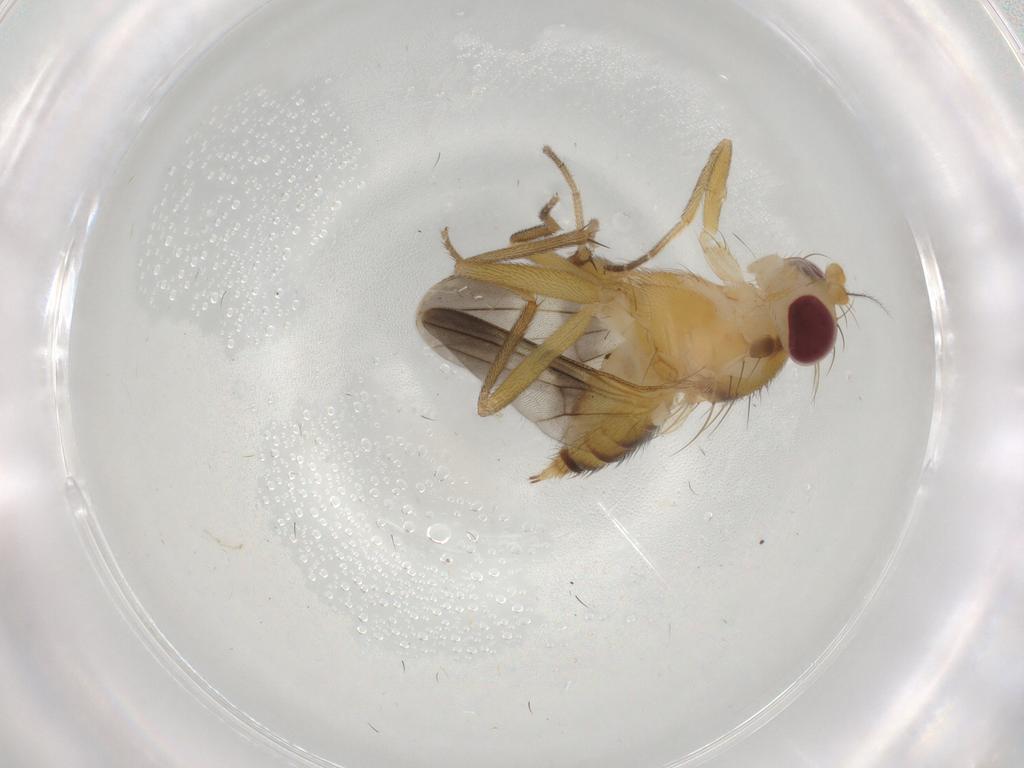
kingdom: Animalia
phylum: Arthropoda
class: Insecta
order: Diptera
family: Clusiidae
